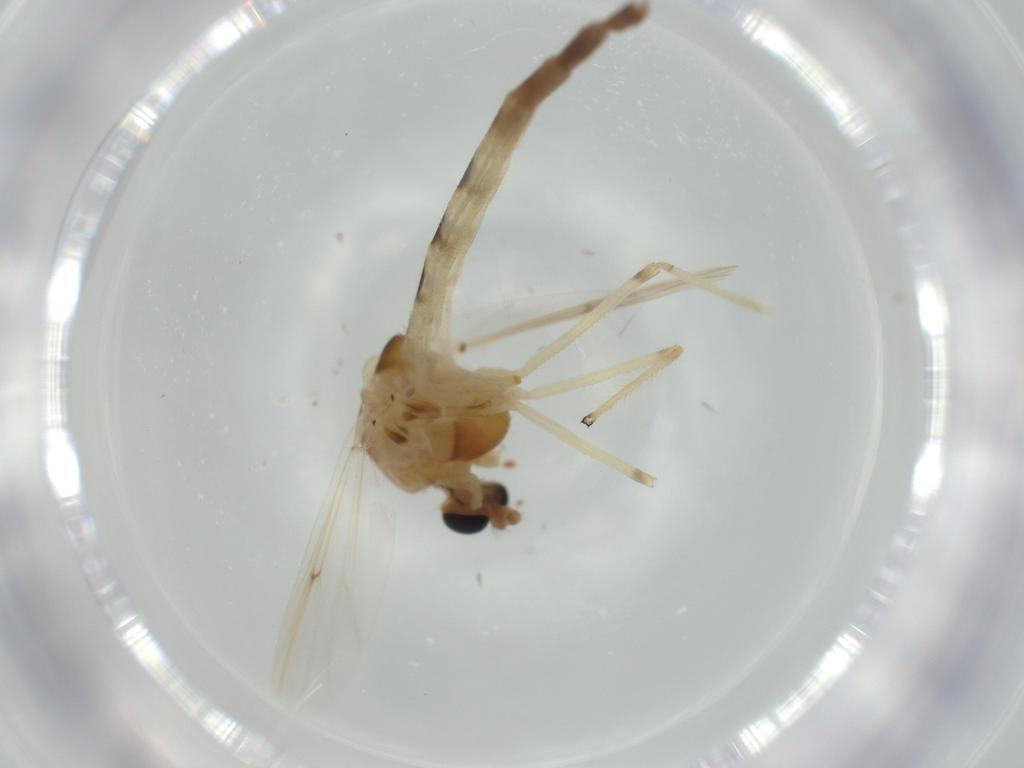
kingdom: Animalia
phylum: Arthropoda
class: Insecta
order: Diptera
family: Chironomidae
